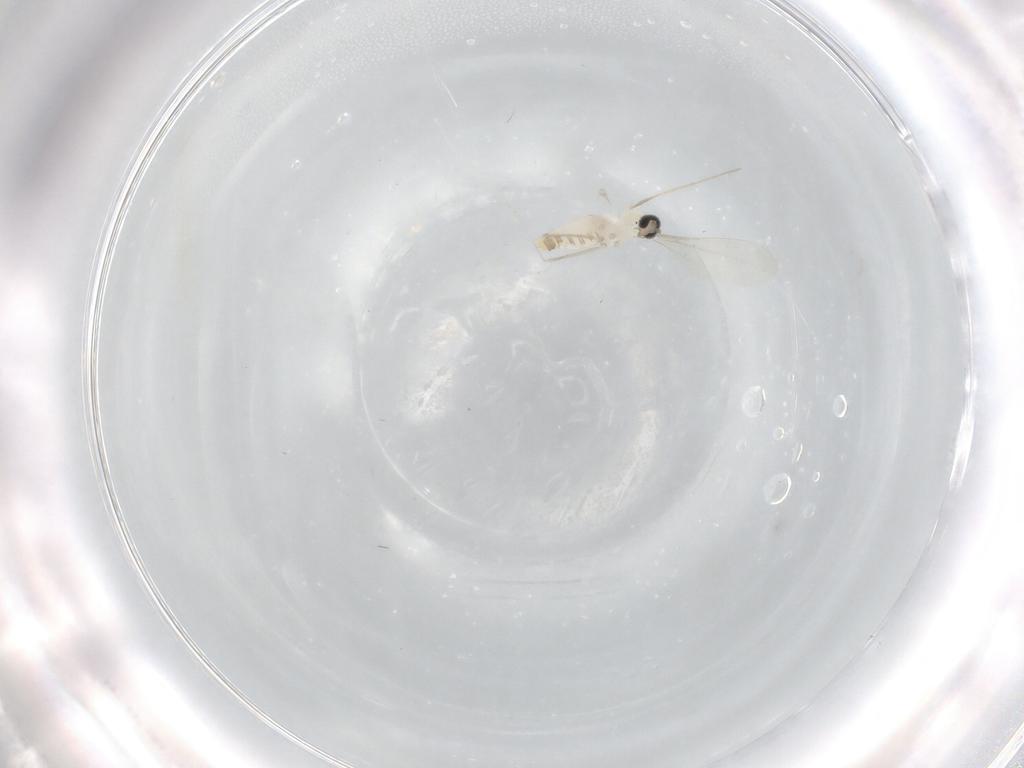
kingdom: Animalia
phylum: Arthropoda
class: Insecta
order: Diptera
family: Cecidomyiidae
